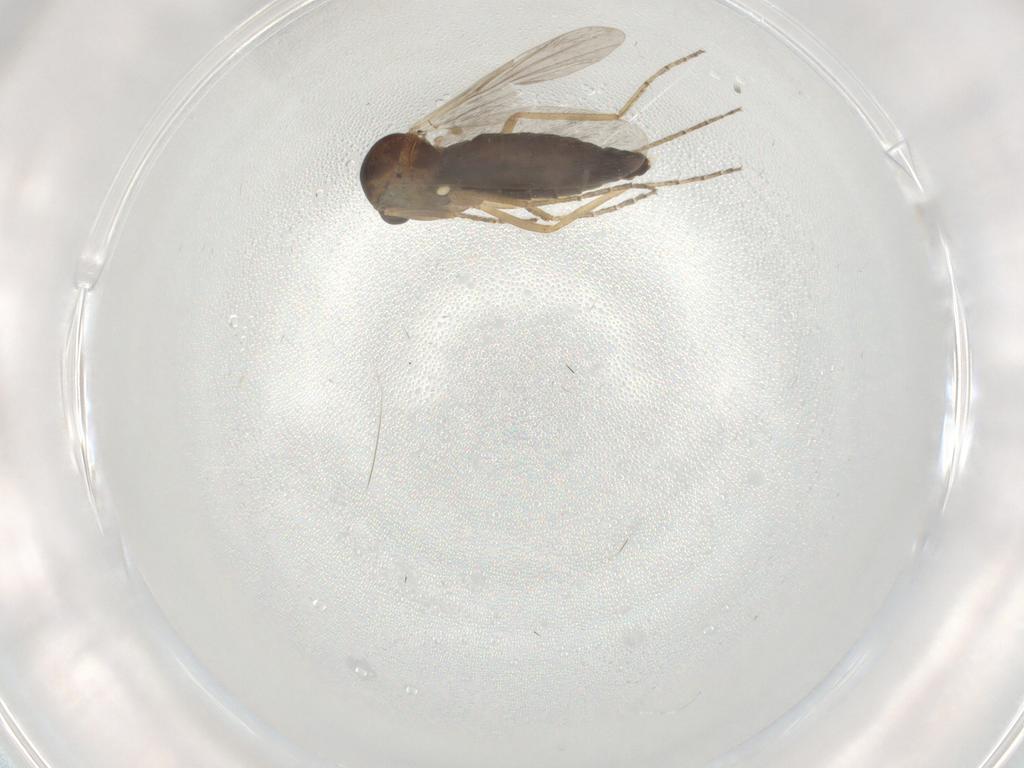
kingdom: Animalia
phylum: Arthropoda
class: Insecta
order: Diptera
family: Ceratopogonidae
